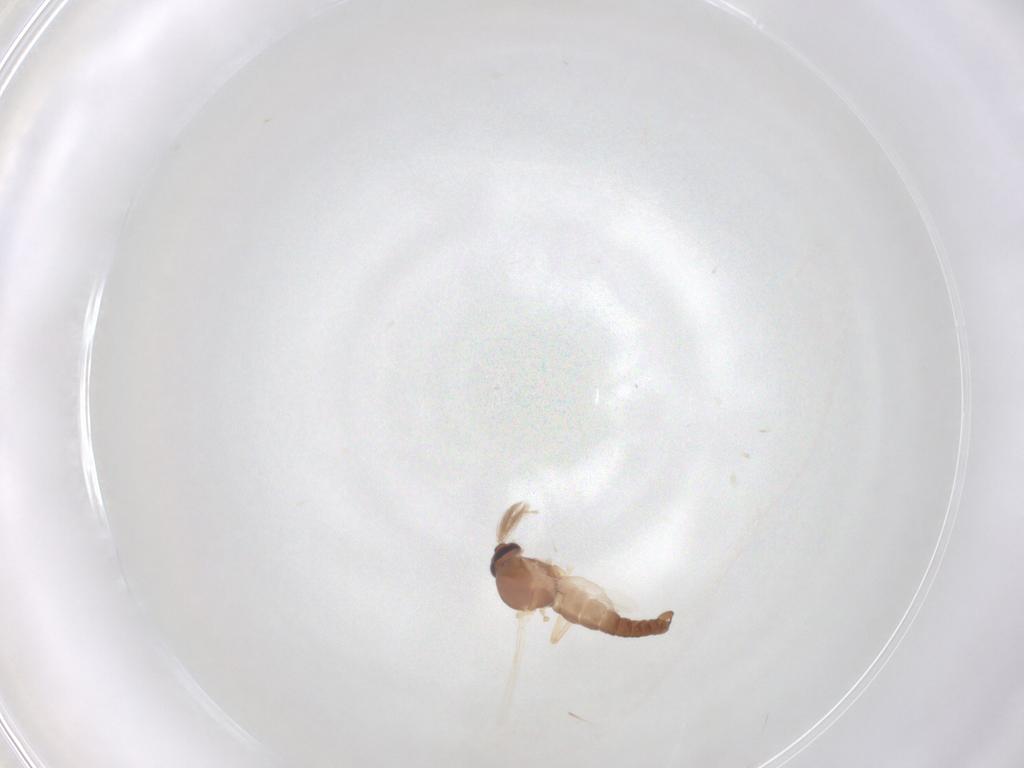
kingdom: Animalia
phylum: Arthropoda
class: Insecta
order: Diptera
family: Ceratopogonidae
